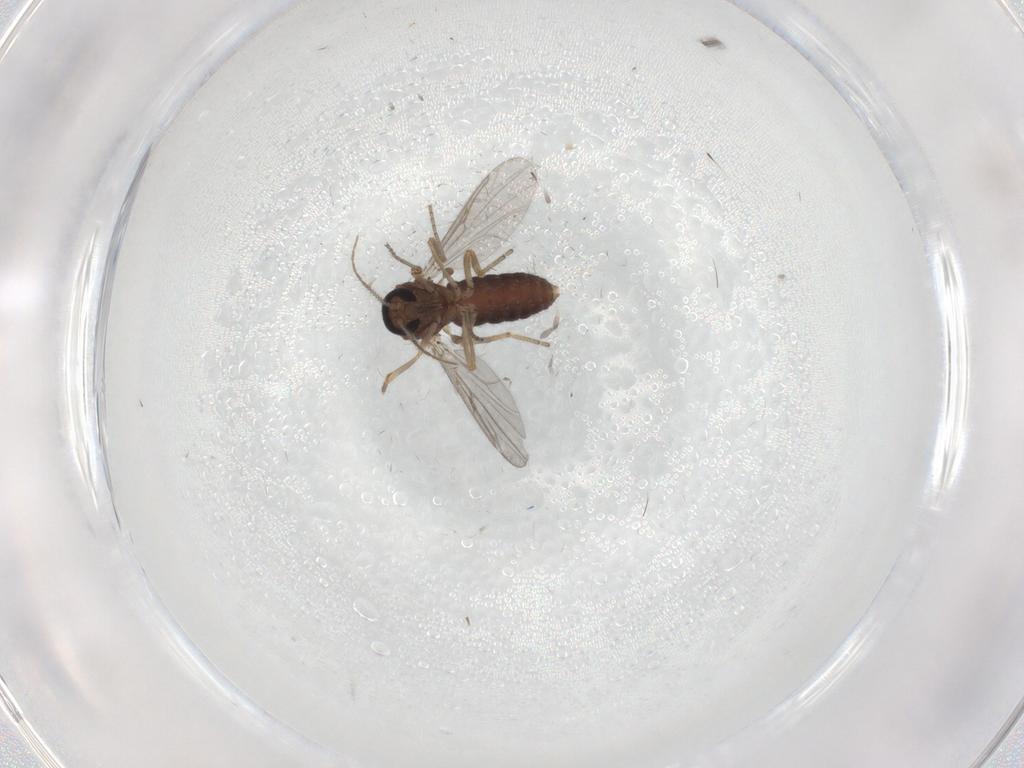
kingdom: Animalia
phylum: Arthropoda
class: Insecta
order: Diptera
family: Ceratopogonidae
